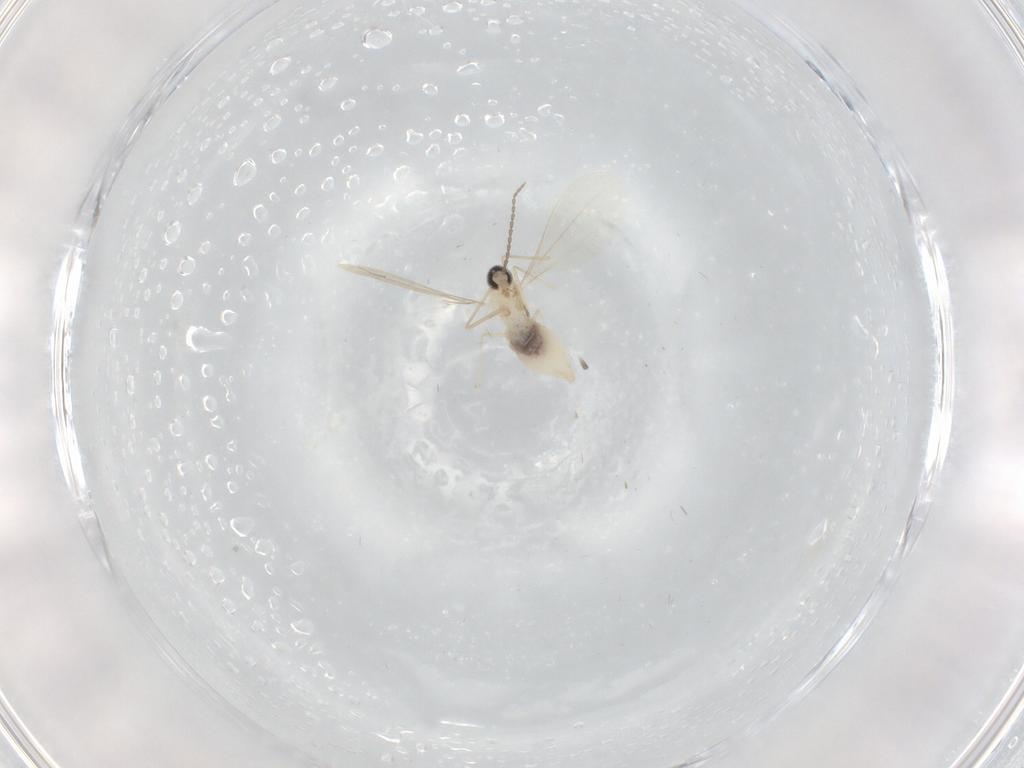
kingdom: Animalia
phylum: Arthropoda
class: Insecta
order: Diptera
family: Cecidomyiidae
